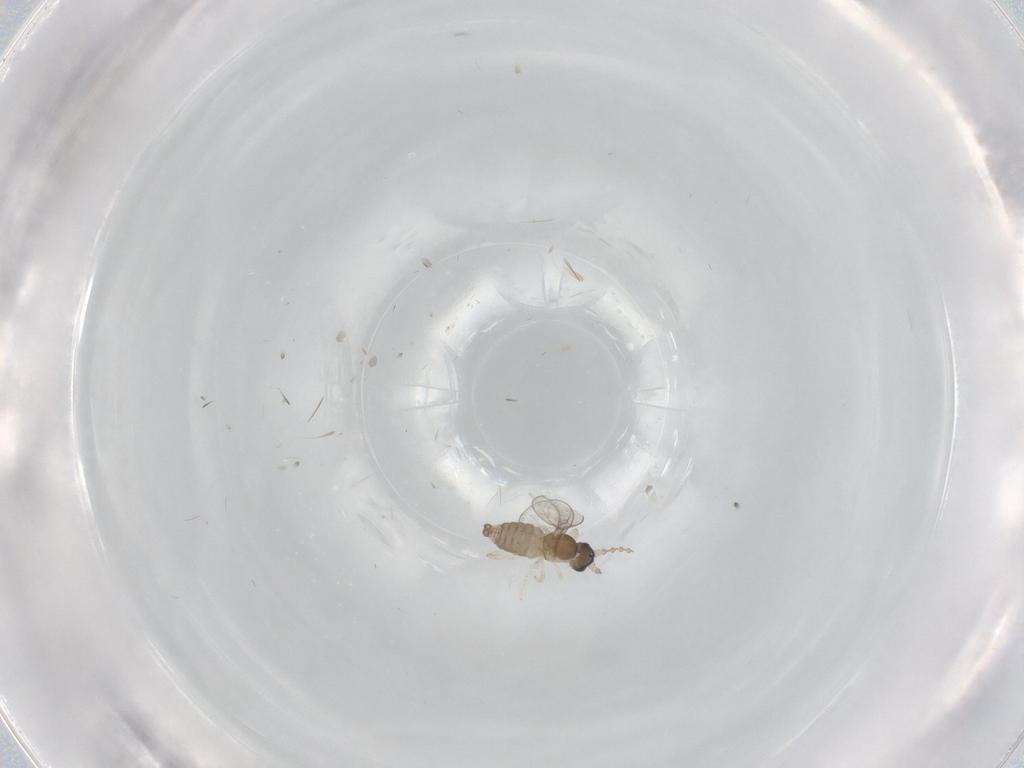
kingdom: Animalia
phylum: Arthropoda
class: Insecta
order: Diptera
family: Cecidomyiidae
